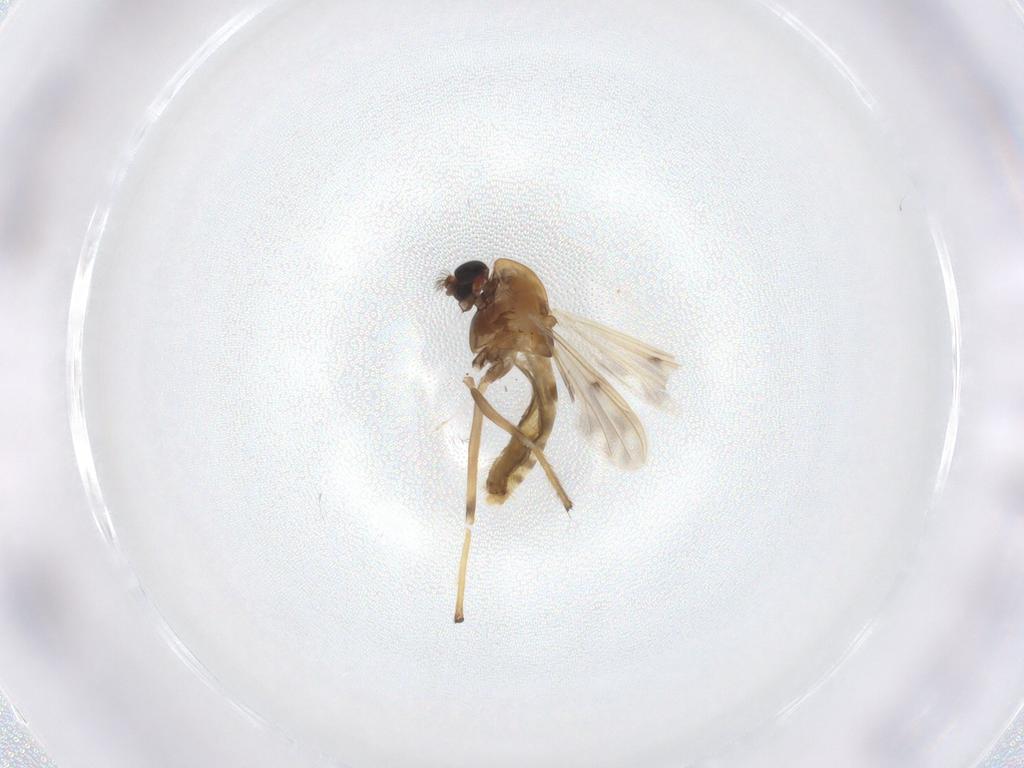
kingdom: Animalia
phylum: Arthropoda
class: Insecta
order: Diptera
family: Chironomidae
